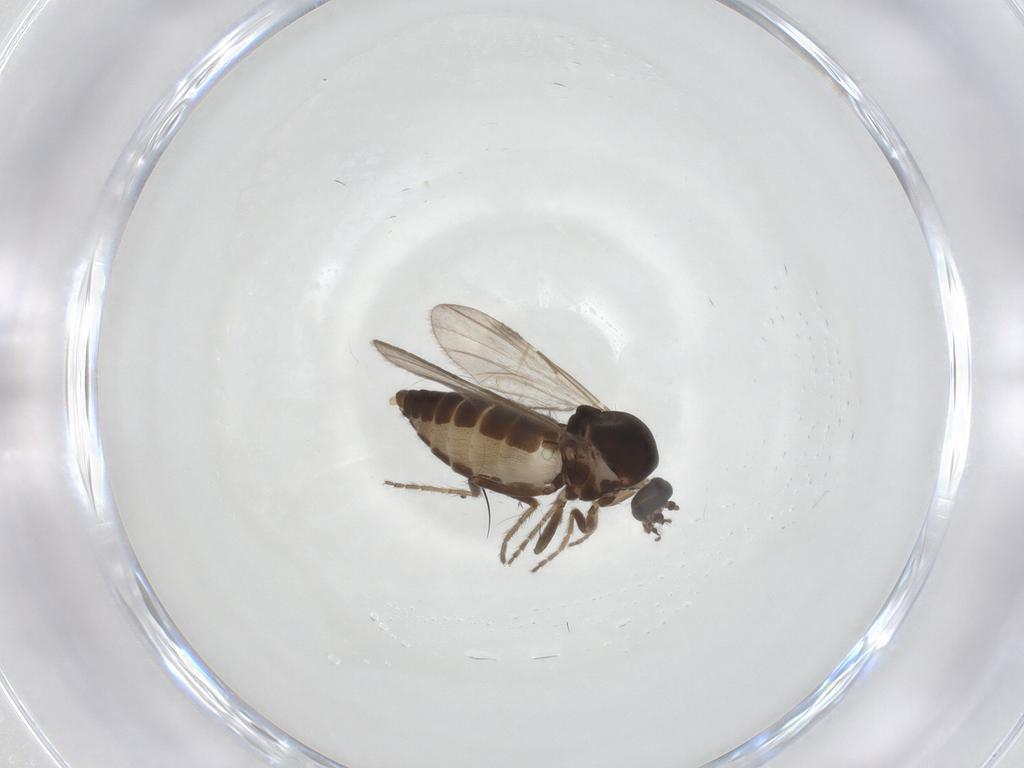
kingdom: Animalia
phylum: Arthropoda
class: Insecta
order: Diptera
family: Ceratopogonidae
